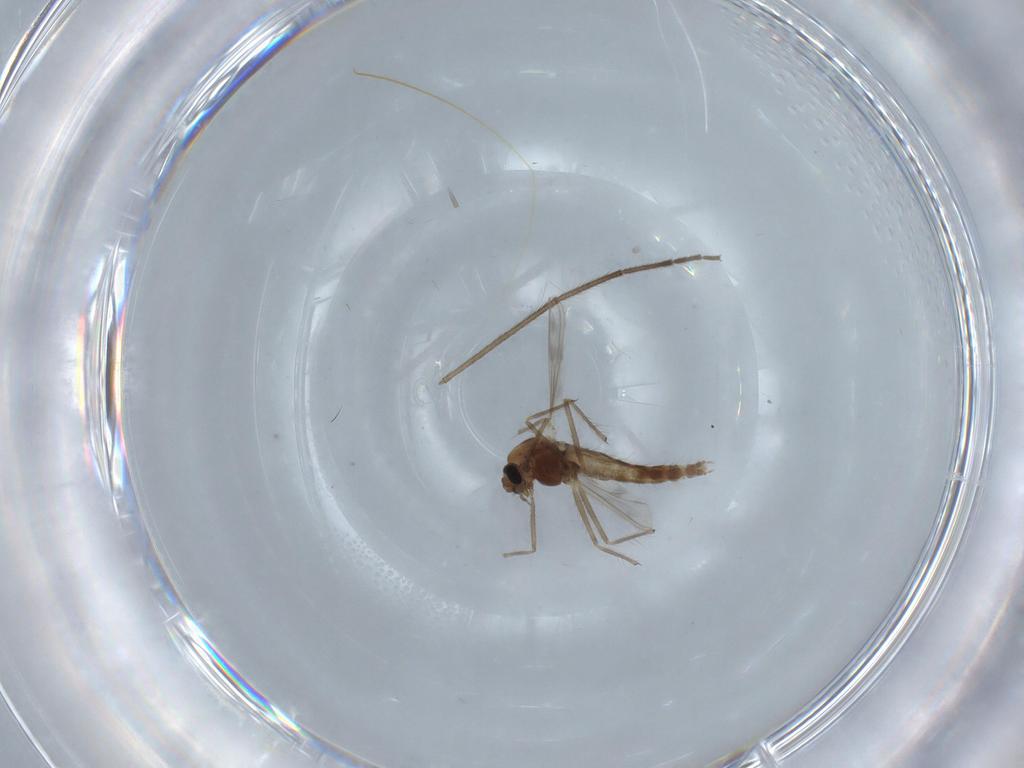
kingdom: Animalia
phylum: Arthropoda
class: Insecta
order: Diptera
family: Chironomidae
